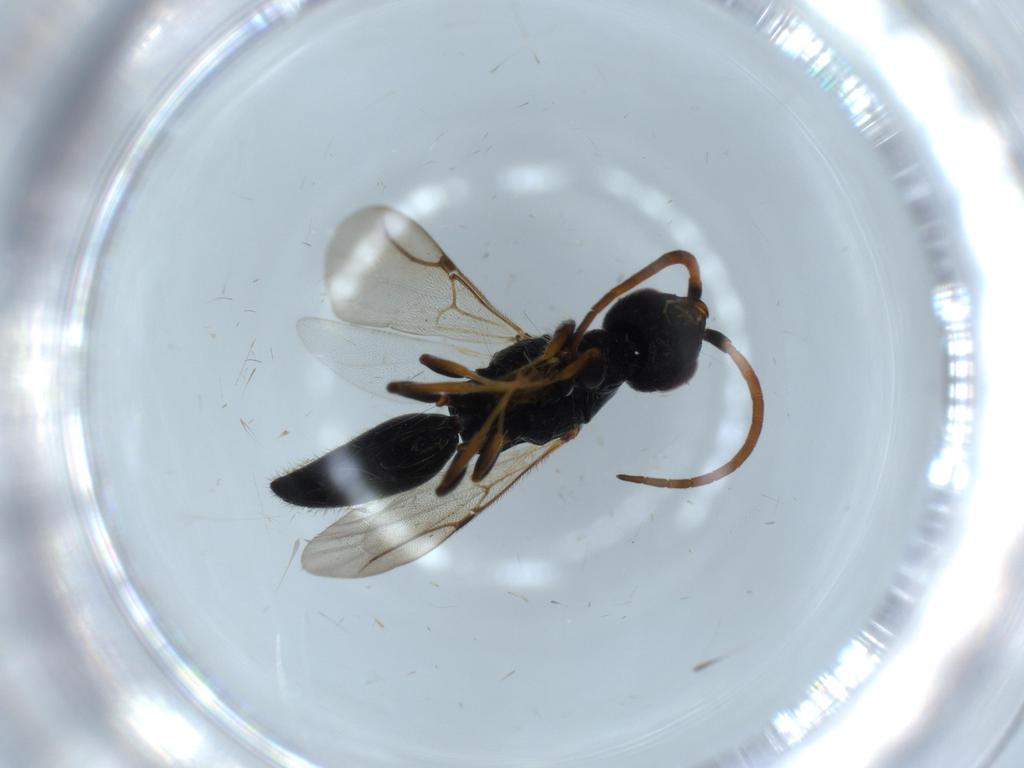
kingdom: Animalia
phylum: Arthropoda
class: Insecta
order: Hymenoptera
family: Bethylidae
